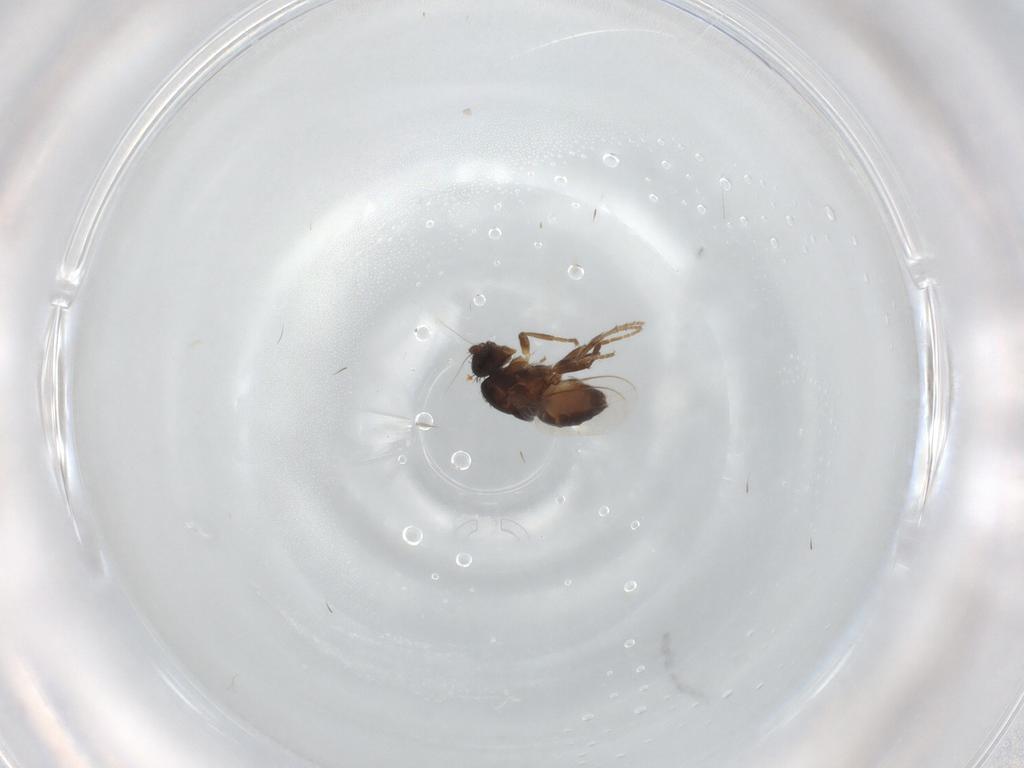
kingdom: Animalia
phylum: Arthropoda
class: Insecta
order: Diptera
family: Sphaeroceridae
